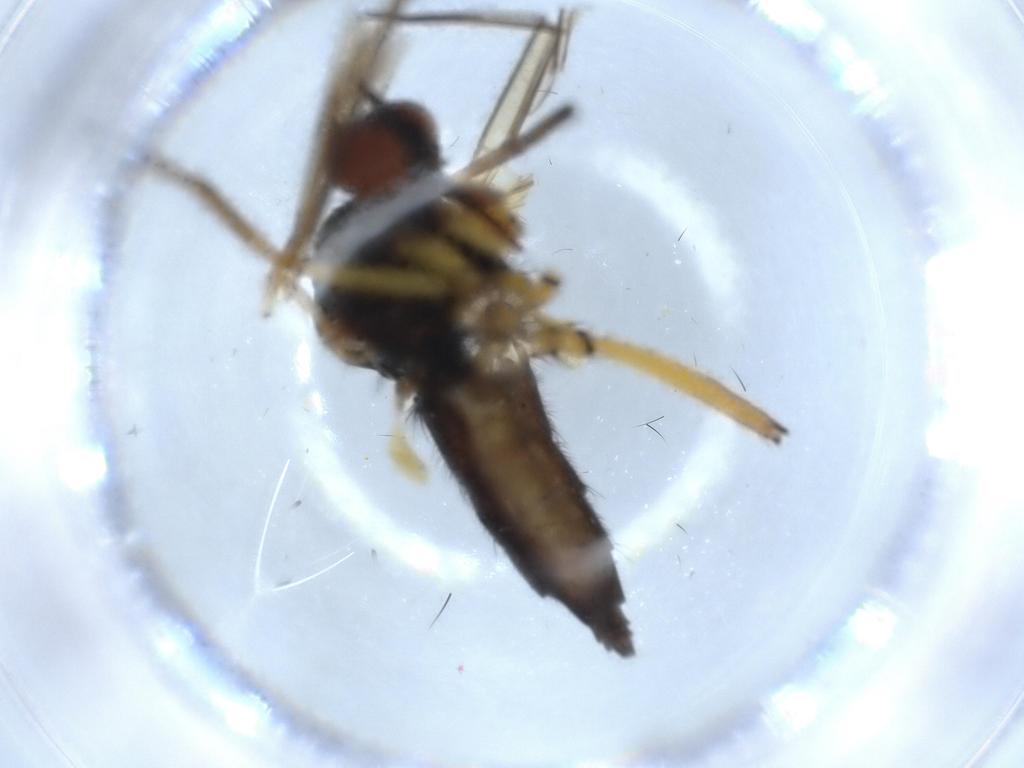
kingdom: Animalia
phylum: Arthropoda
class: Insecta
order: Diptera
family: Empididae
